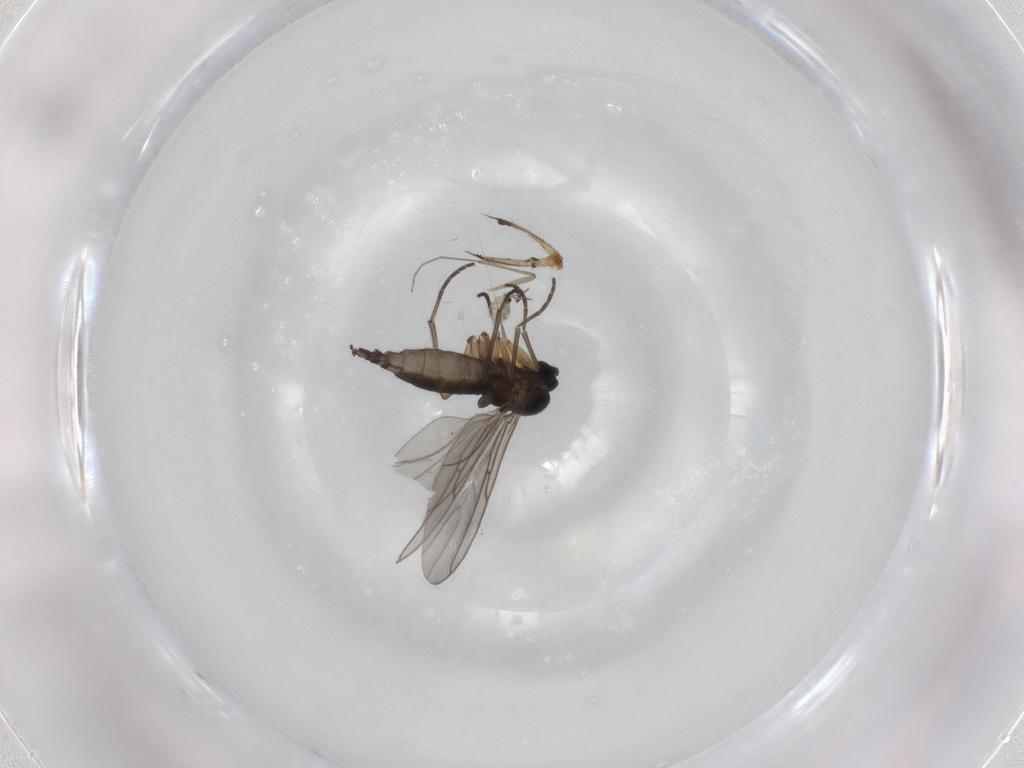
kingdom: Animalia
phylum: Arthropoda
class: Insecta
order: Diptera
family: Sciaridae
